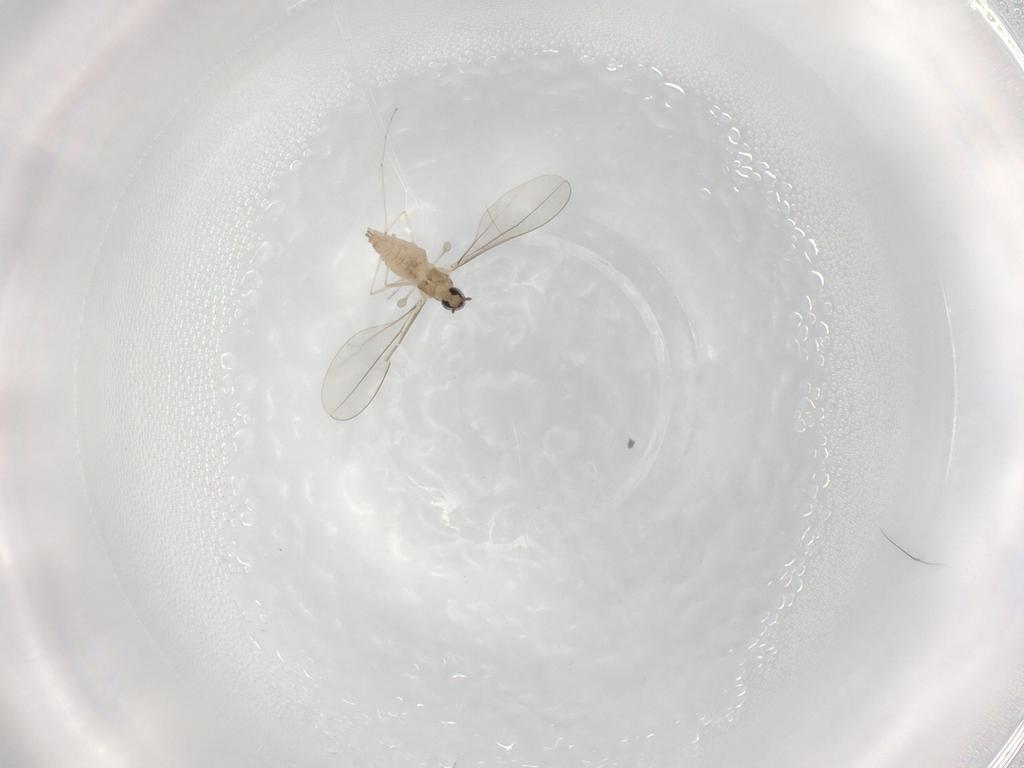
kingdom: Animalia
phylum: Arthropoda
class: Insecta
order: Diptera
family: Cecidomyiidae
